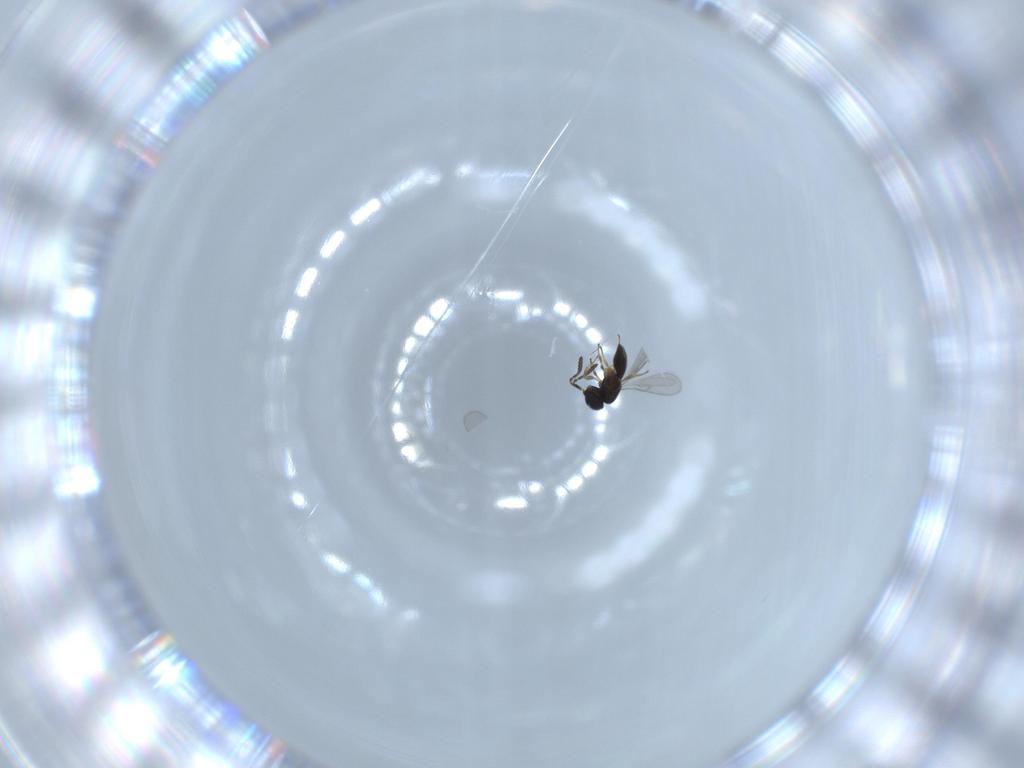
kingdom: Animalia
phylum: Arthropoda
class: Insecta
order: Hymenoptera
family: Scelionidae
